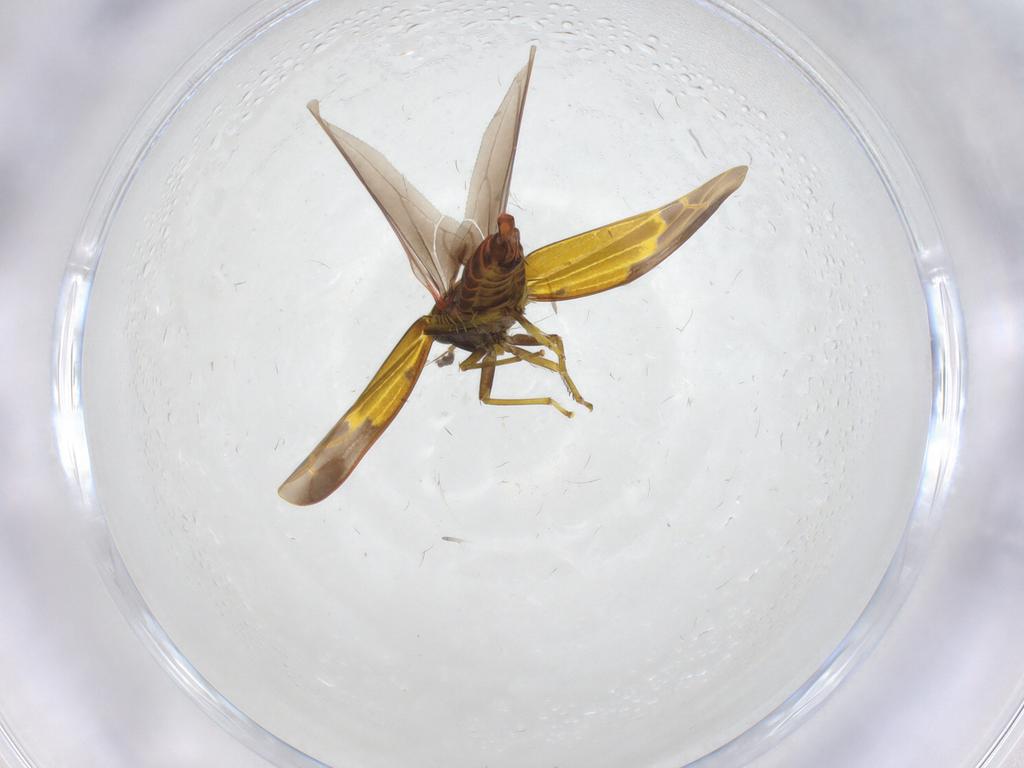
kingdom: Animalia
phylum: Arthropoda
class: Insecta
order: Hemiptera
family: Cicadellidae
